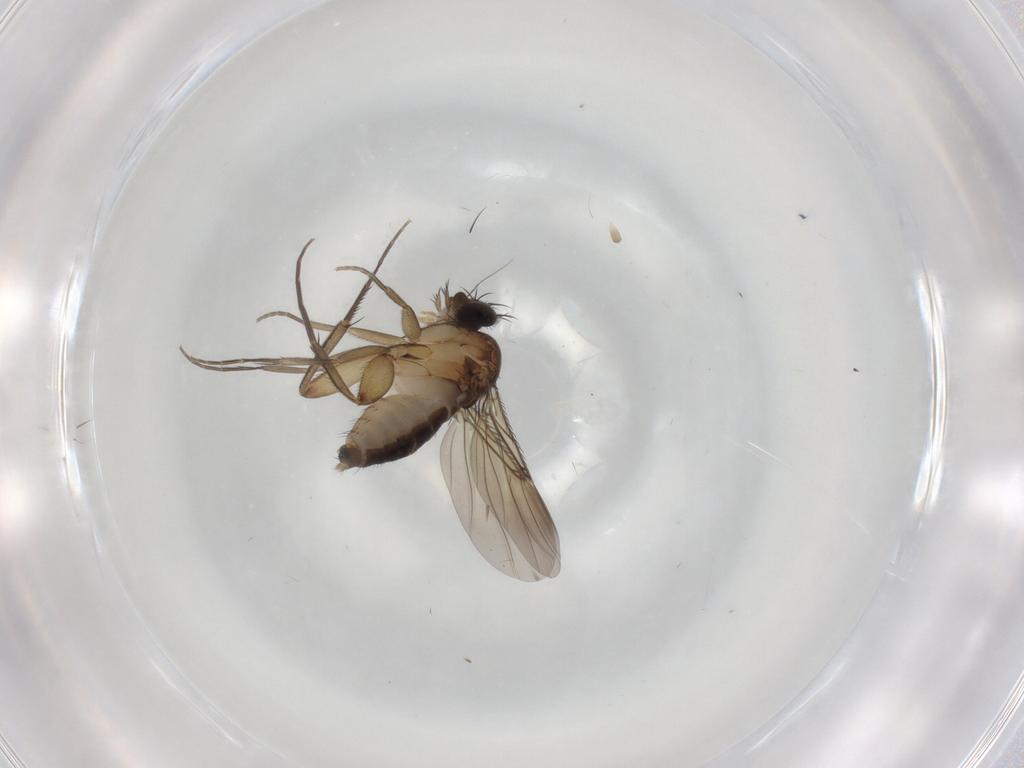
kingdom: Animalia
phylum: Arthropoda
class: Insecta
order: Diptera
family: Phoridae
